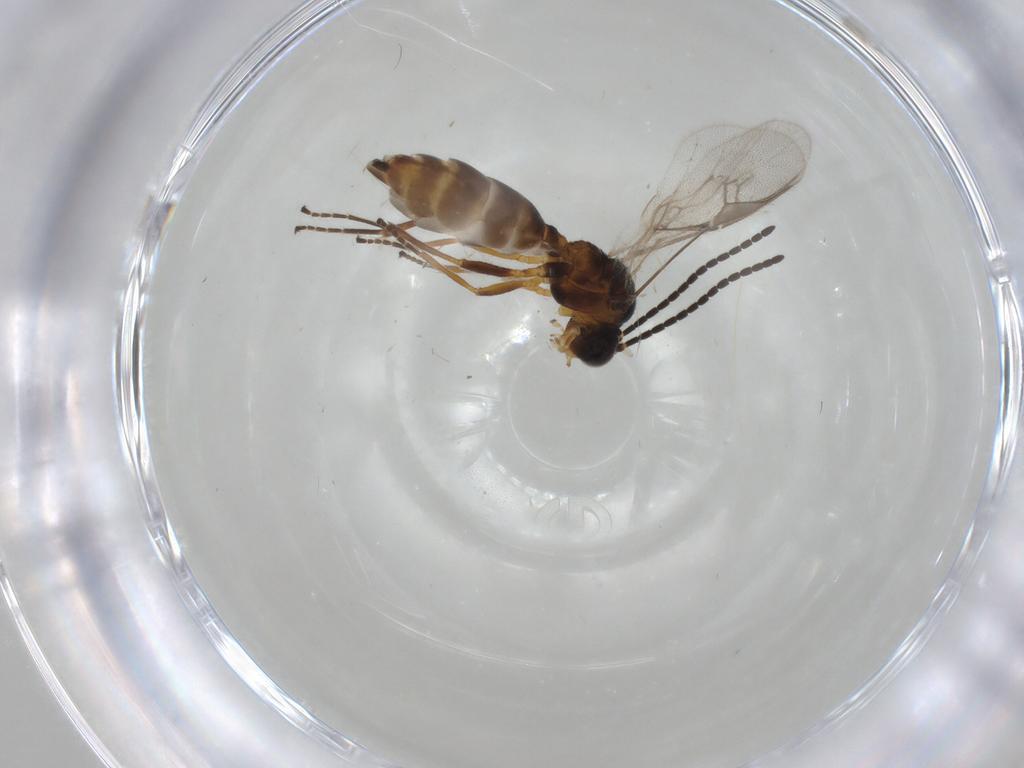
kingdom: Animalia
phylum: Arthropoda
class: Insecta
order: Hymenoptera
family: Braconidae
